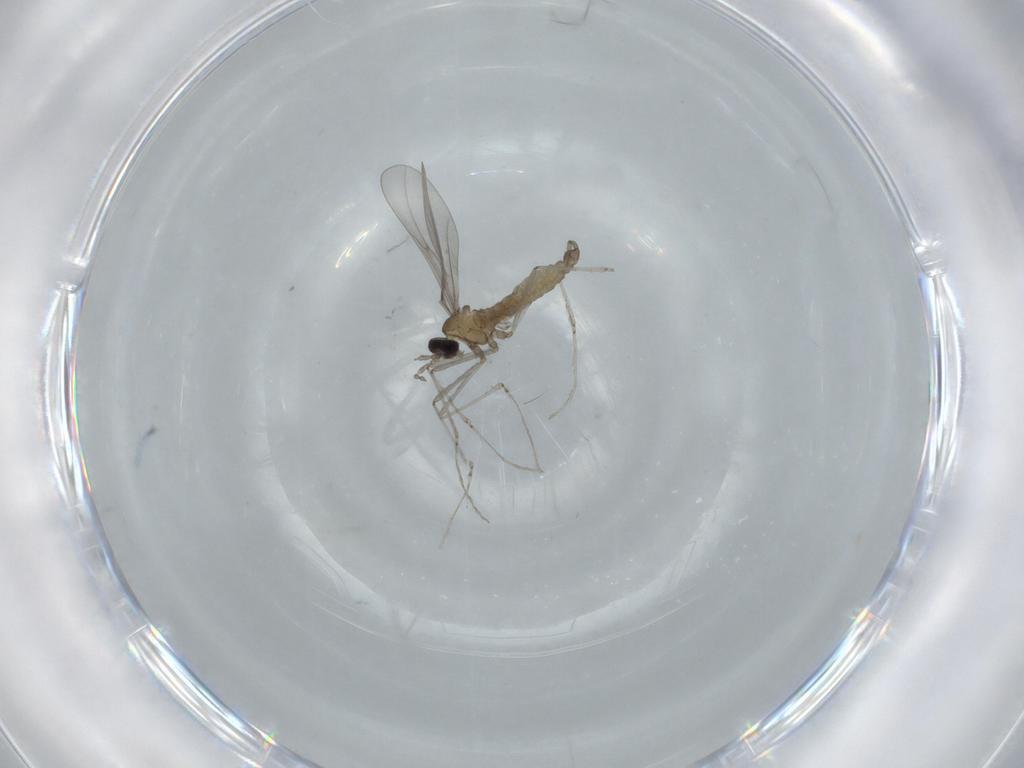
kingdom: Animalia
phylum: Arthropoda
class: Insecta
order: Diptera
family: Cecidomyiidae
